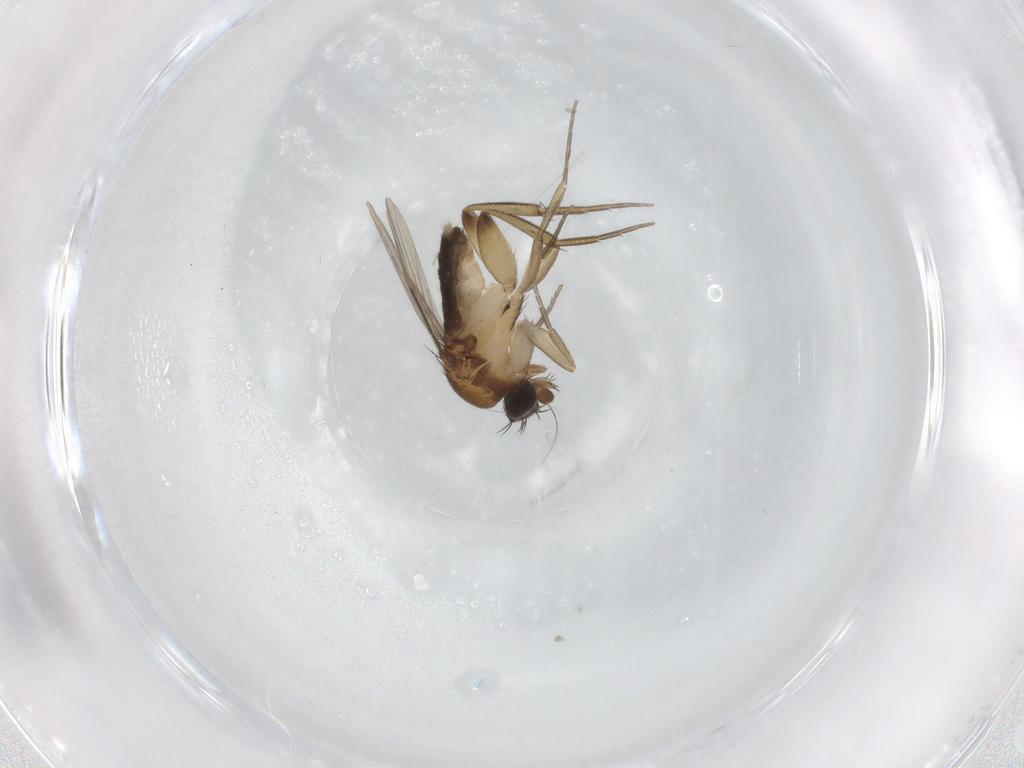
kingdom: Animalia
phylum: Arthropoda
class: Insecta
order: Diptera
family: Phoridae
